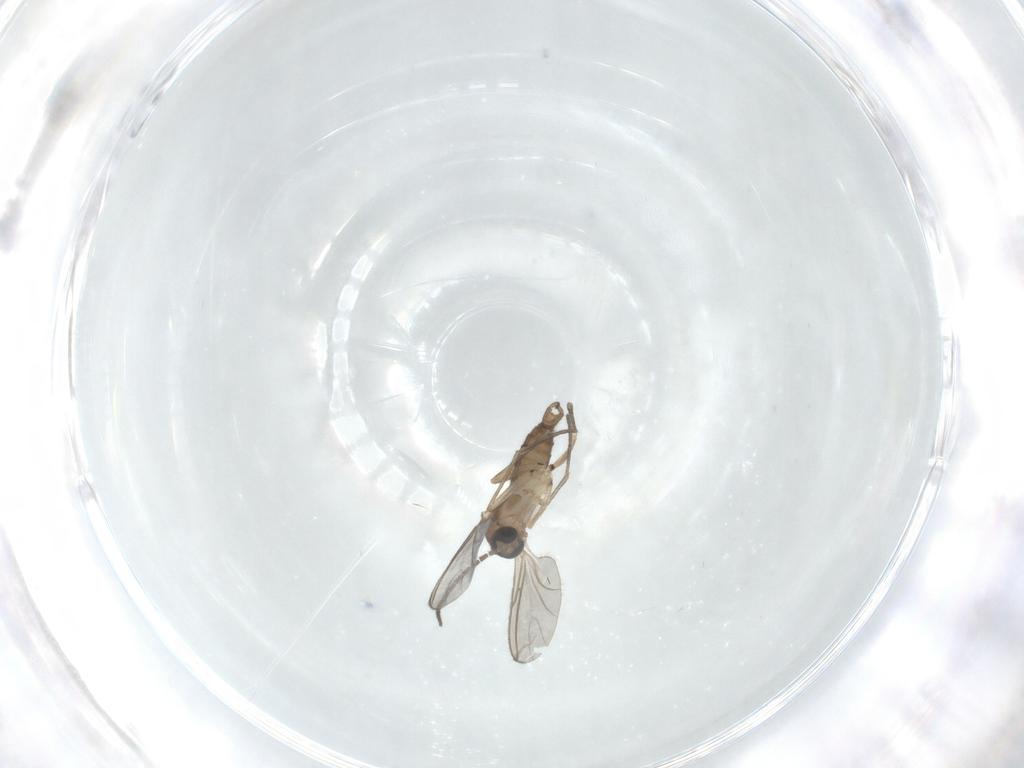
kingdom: Animalia
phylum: Arthropoda
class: Insecta
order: Diptera
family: Sciaridae
